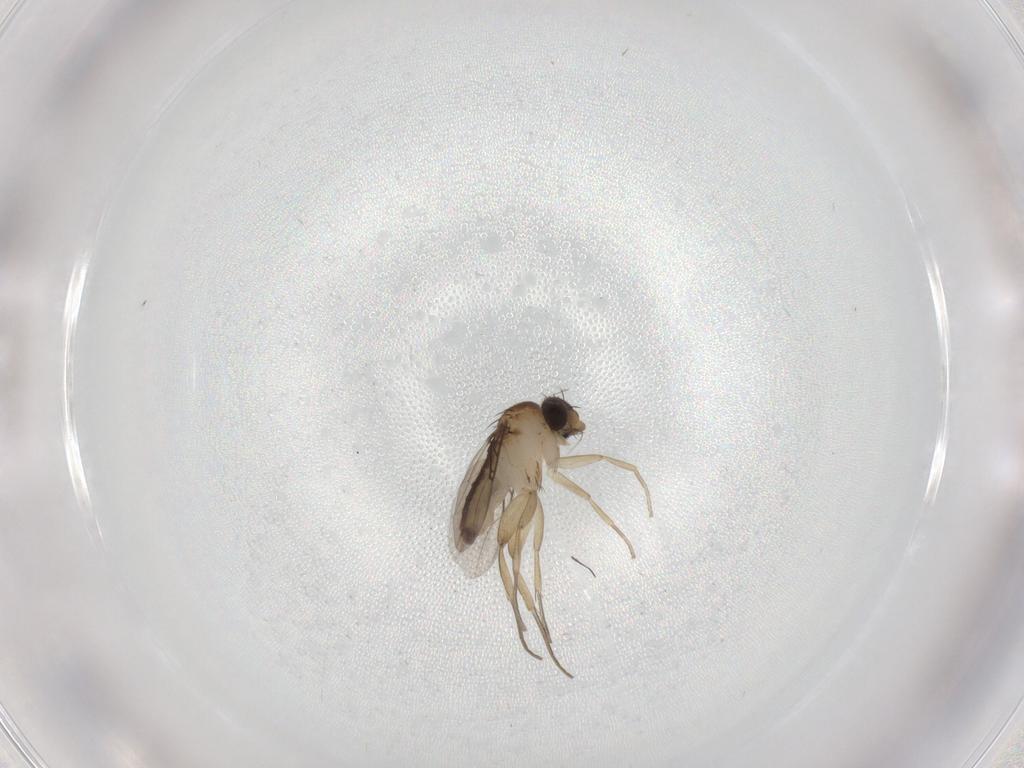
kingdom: Animalia
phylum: Arthropoda
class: Insecta
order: Diptera
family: Phoridae
